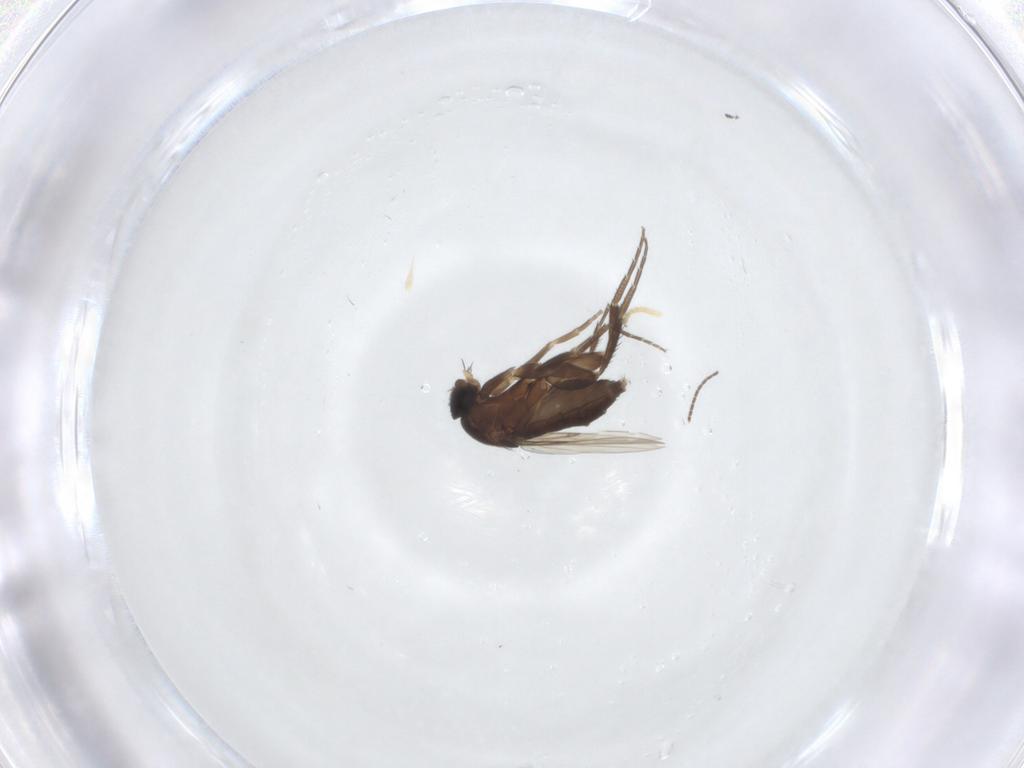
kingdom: Animalia
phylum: Arthropoda
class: Insecta
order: Diptera
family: Phoridae
